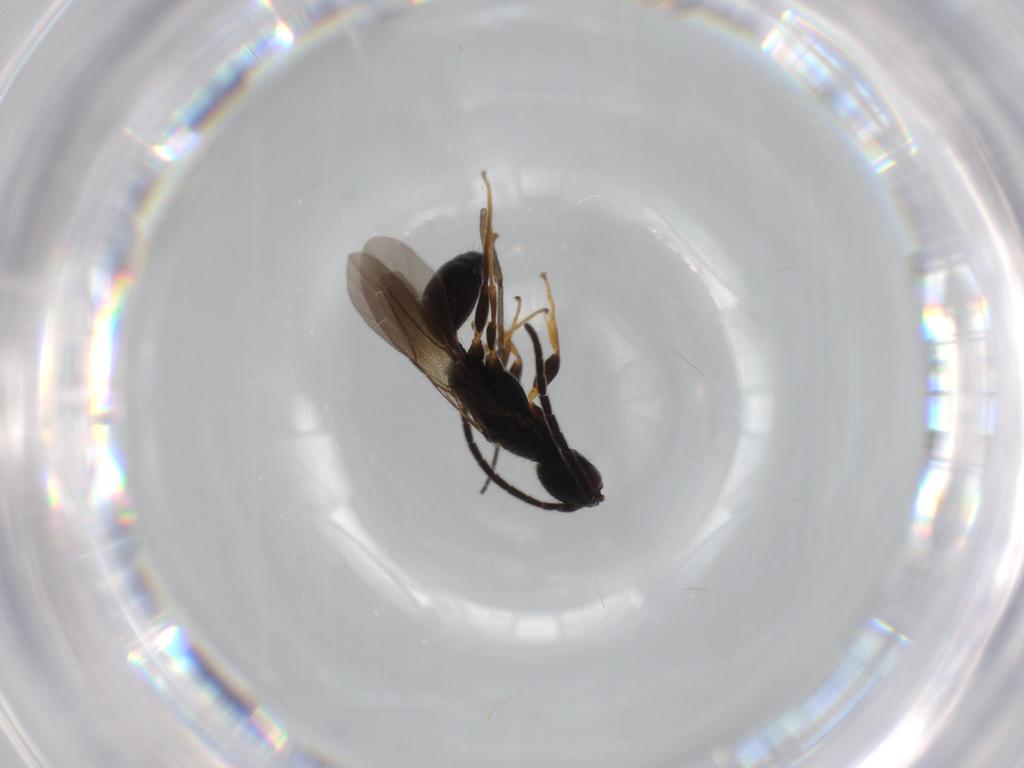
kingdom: Animalia
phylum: Arthropoda
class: Insecta
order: Hymenoptera
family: Bethylidae
